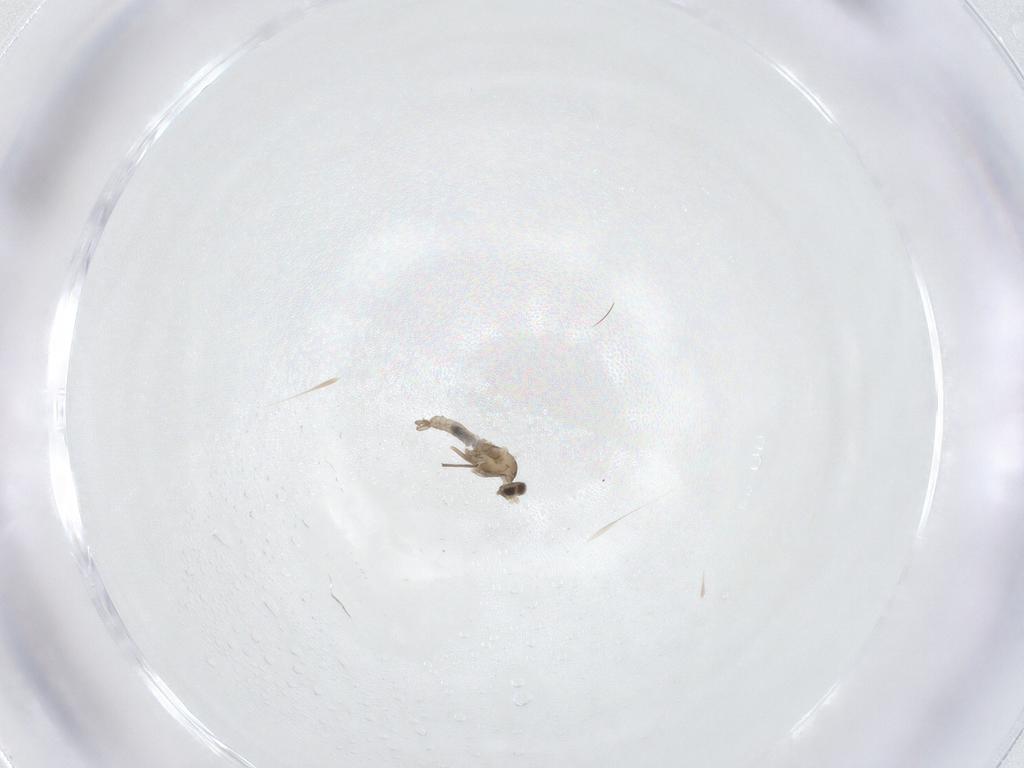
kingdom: Animalia
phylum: Arthropoda
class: Insecta
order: Diptera
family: Cecidomyiidae
